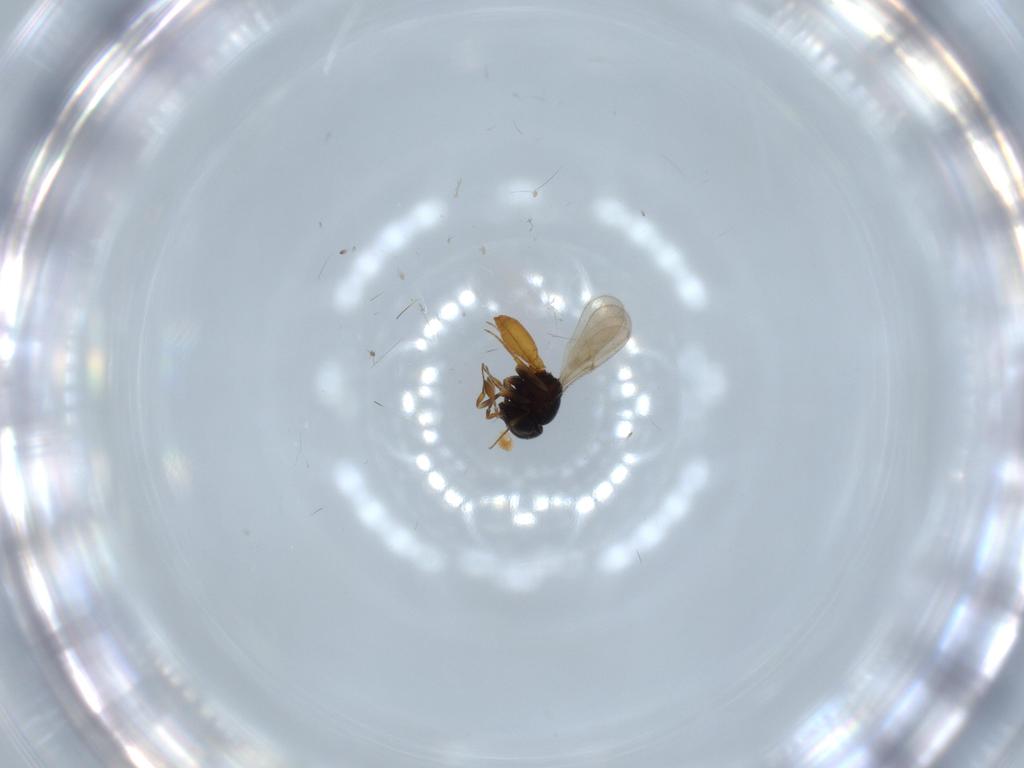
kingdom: Animalia
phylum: Arthropoda
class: Insecta
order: Hymenoptera
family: Scelionidae
